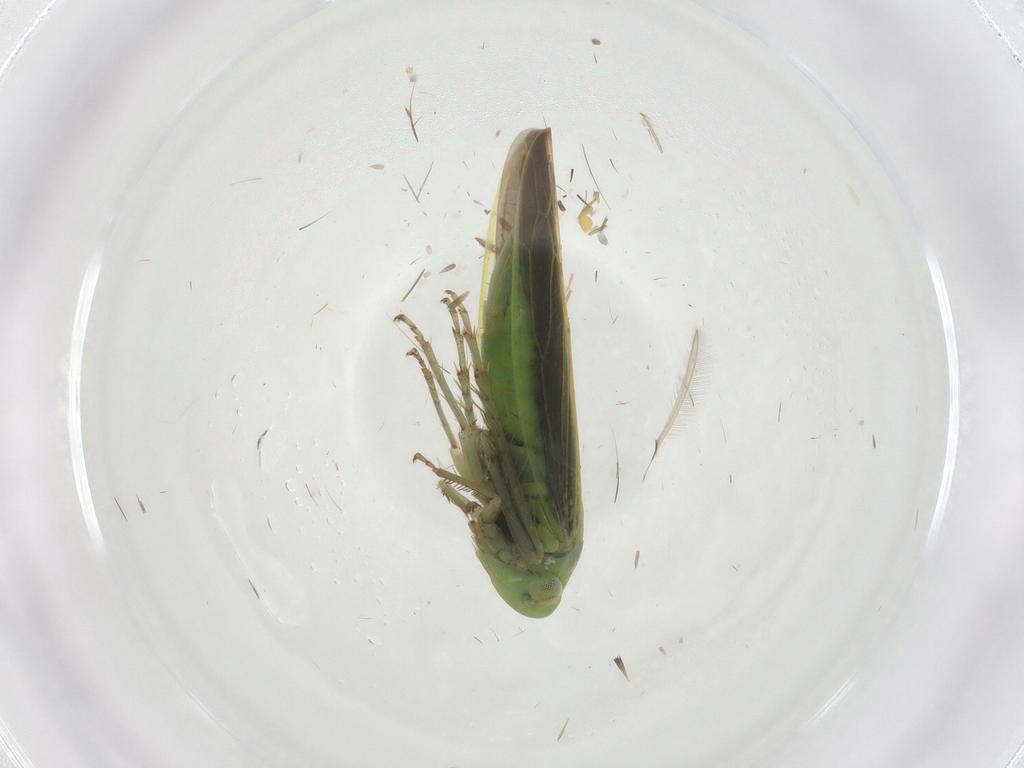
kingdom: Animalia
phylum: Arthropoda
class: Insecta
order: Hemiptera
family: Cicadellidae
